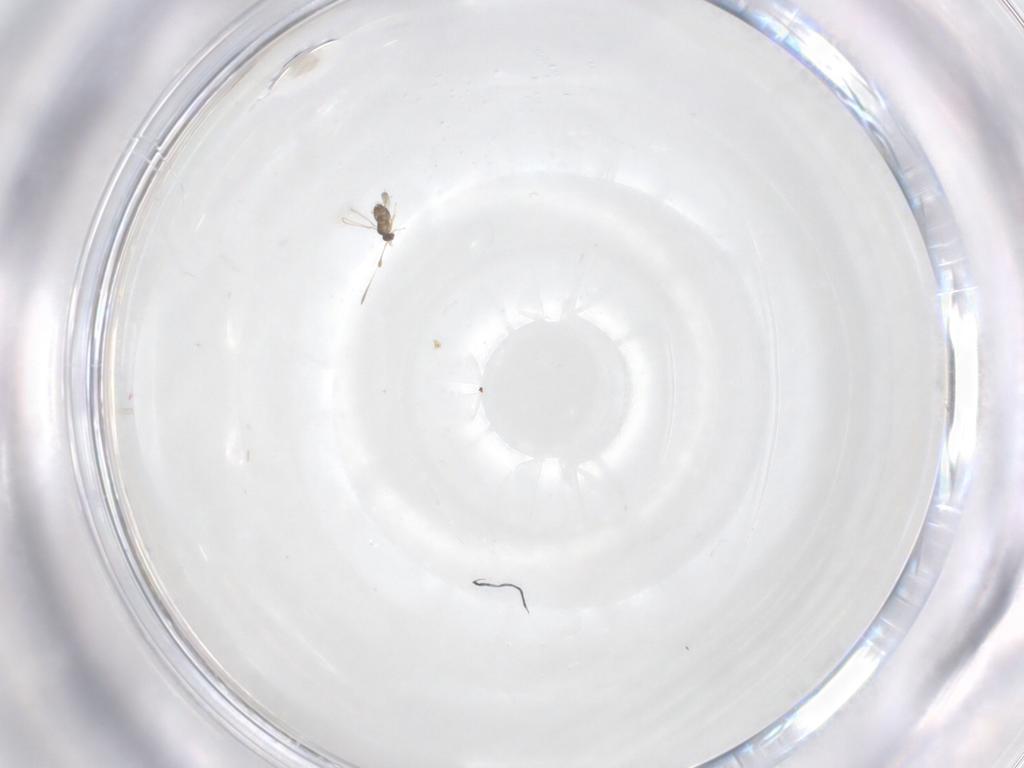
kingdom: Animalia
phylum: Arthropoda
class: Insecta
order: Hymenoptera
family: Scelionidae
